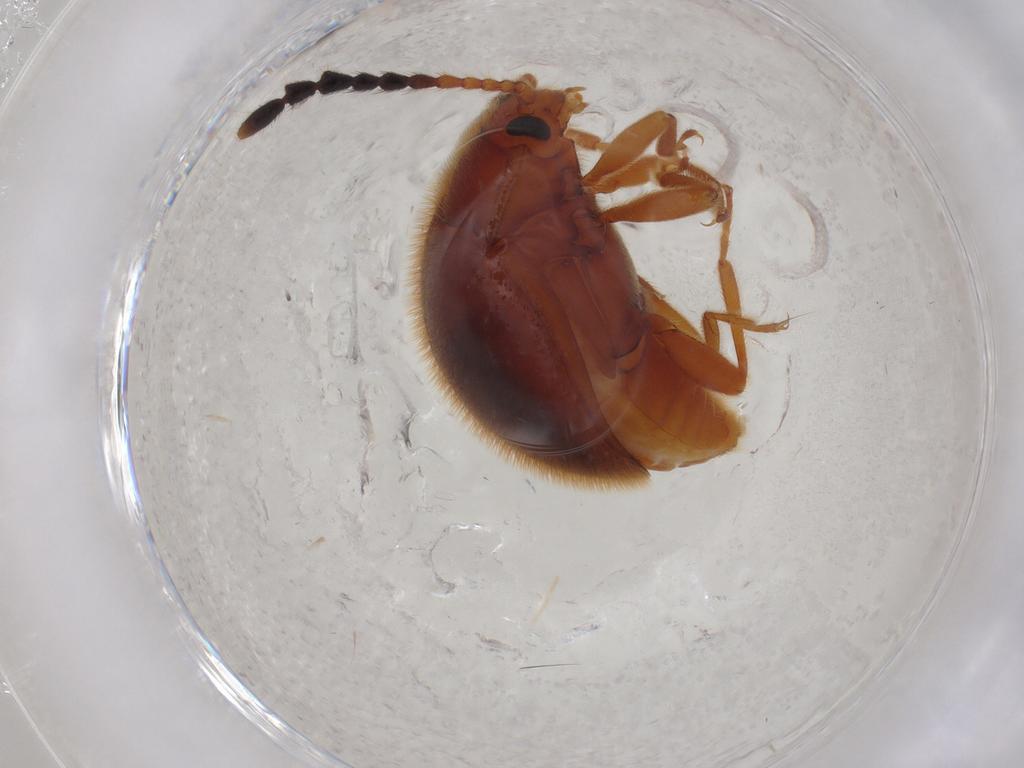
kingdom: Animalia
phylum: Arthropoda
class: Insecta
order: Coleoptera
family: Endomychidae
